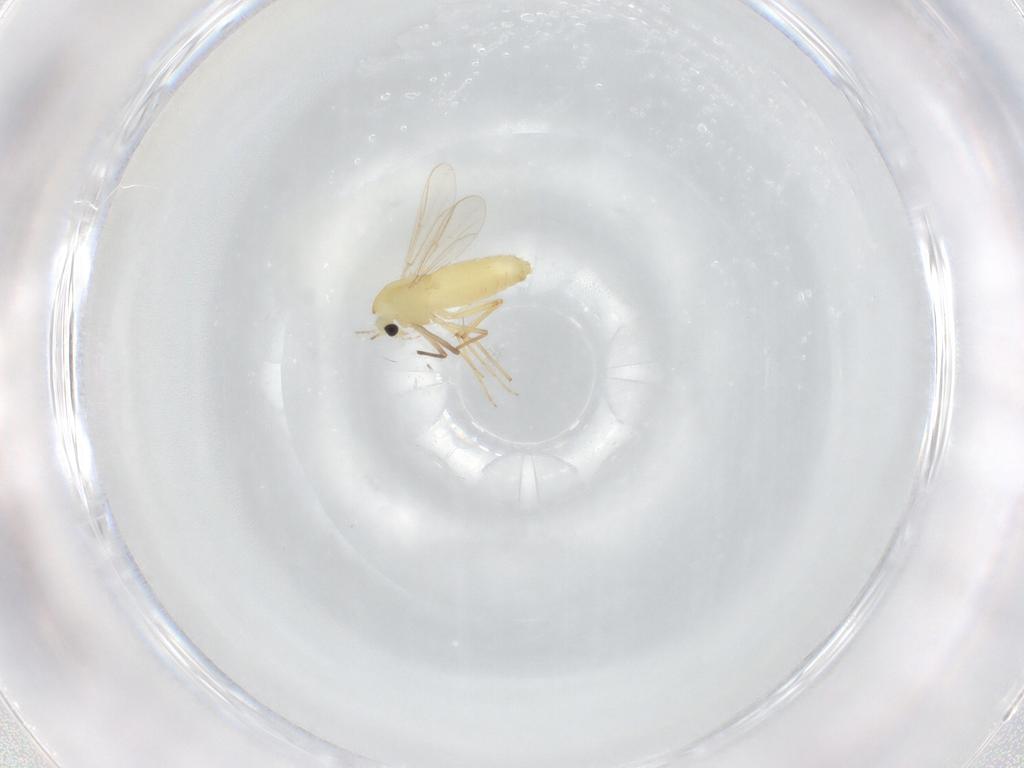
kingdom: Animalia
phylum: Arthropoda
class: Insecta
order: Diptera
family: Chironomidae
